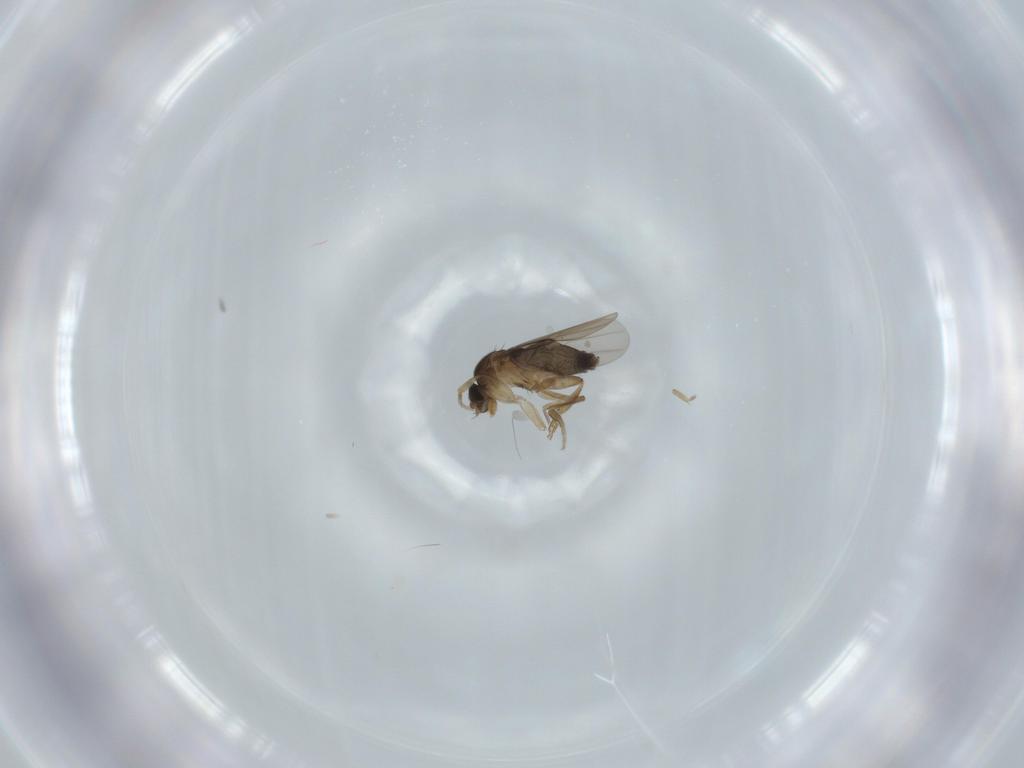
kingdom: Animalia
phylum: Arthropoda
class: Insecta
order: Diptera
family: Phoridae
